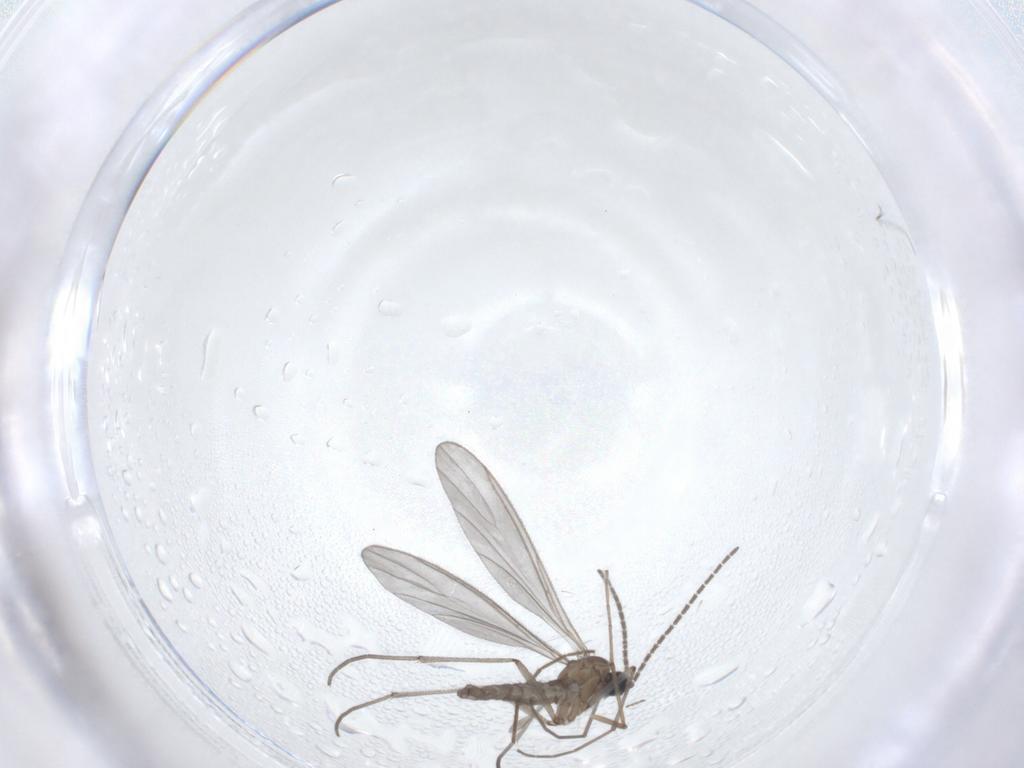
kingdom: Animalia
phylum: Arthropoda
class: Insecta
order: Diptera
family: Sciaridae
